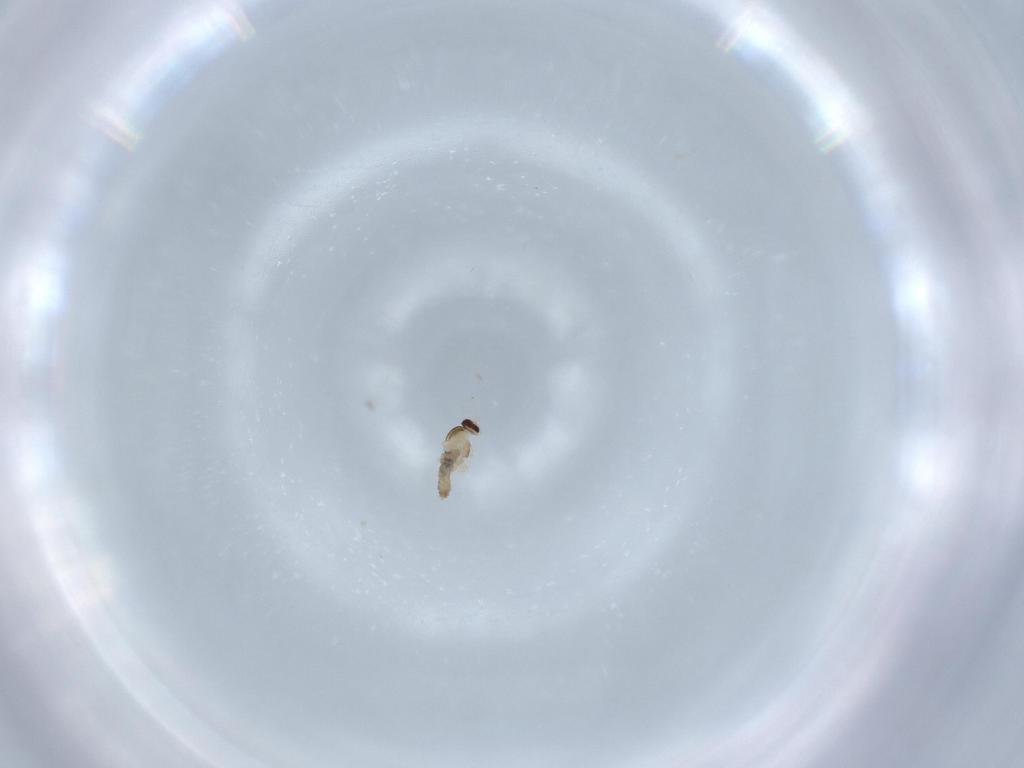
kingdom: Animalia
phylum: Arthropoda
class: Insecta
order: Diptera
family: Cecidomyiidae
